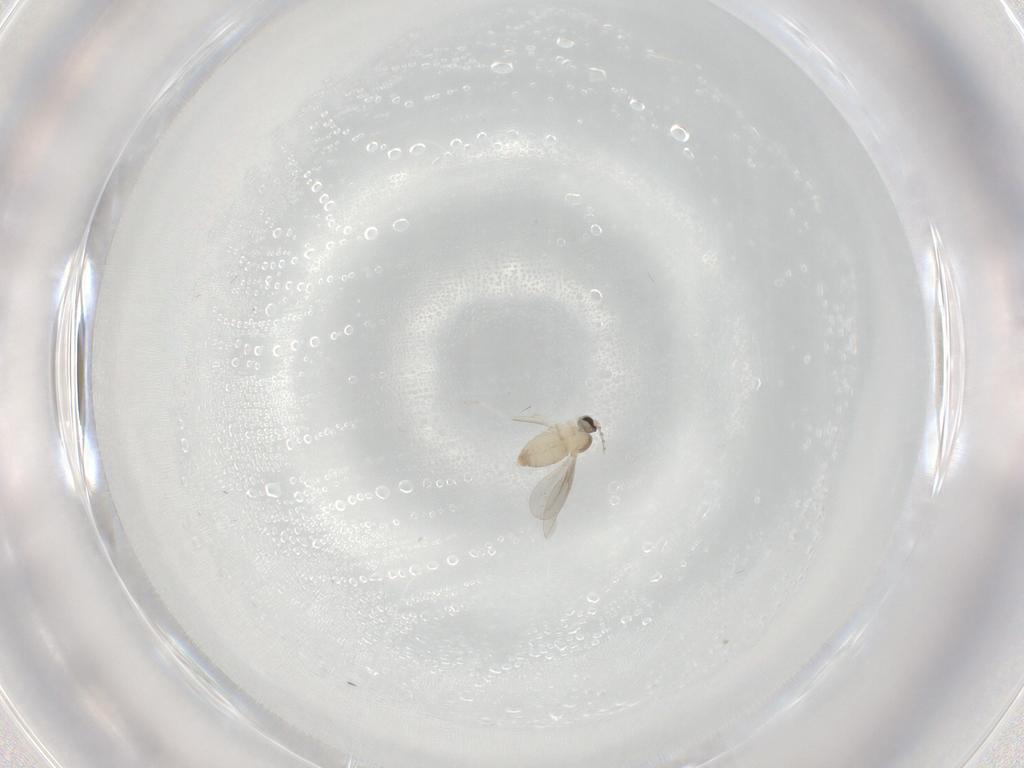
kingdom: Animalia
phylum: Arthropoda
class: Insecta
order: Diptera
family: Cecidomyiidae
